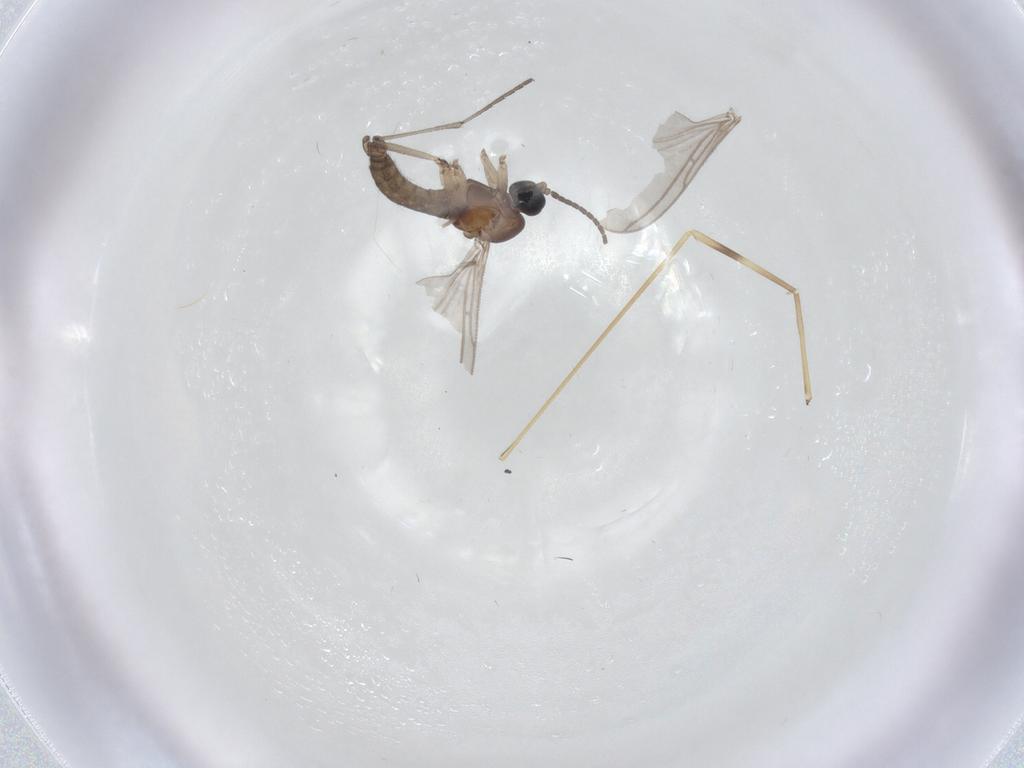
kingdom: Animalia
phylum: Arthropoda
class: Insecta
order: Diptera
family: Sciaridae
